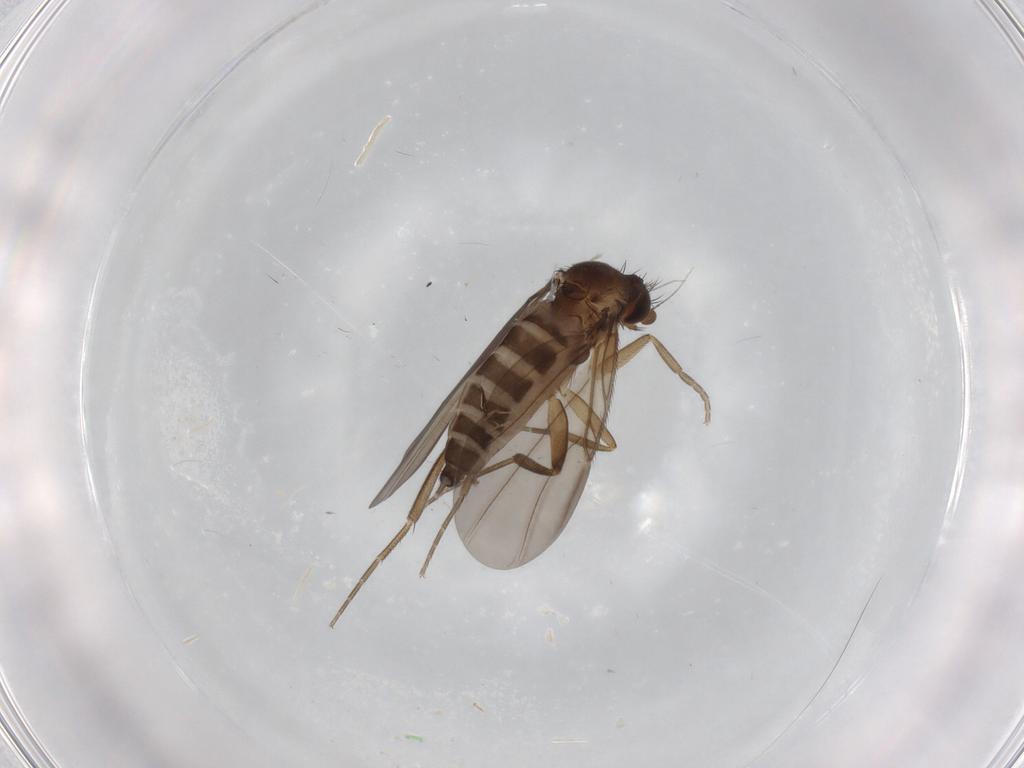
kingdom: Animalia
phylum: Arthropoda
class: Insecta
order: Diptera
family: Phoridae
